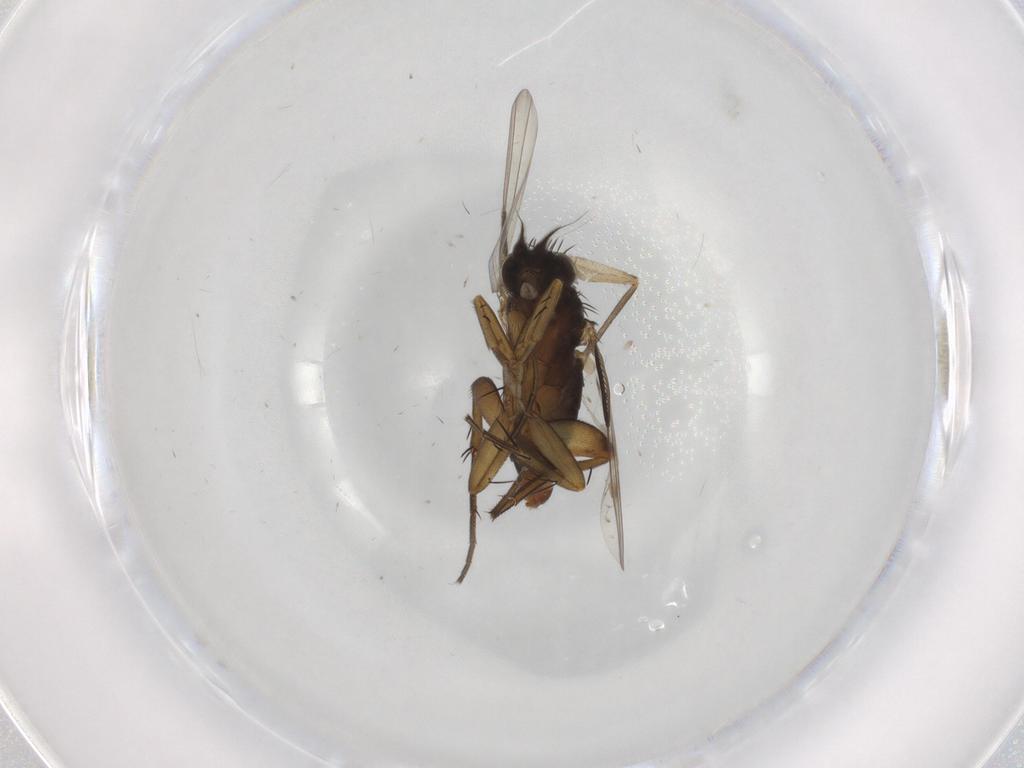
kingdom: Animalia
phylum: Arthropoda
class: Insecta
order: Diptera
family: Phoridae
